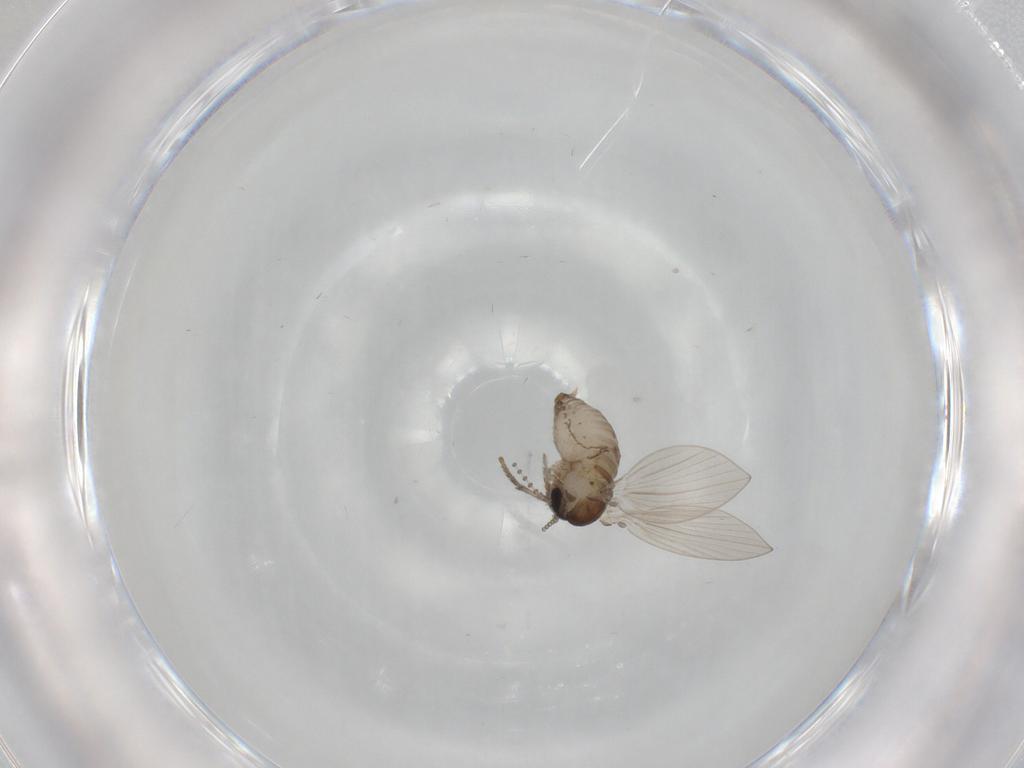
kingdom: Animalia
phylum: Arthropoda
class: Insecta
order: Diptera
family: Psychodidae
